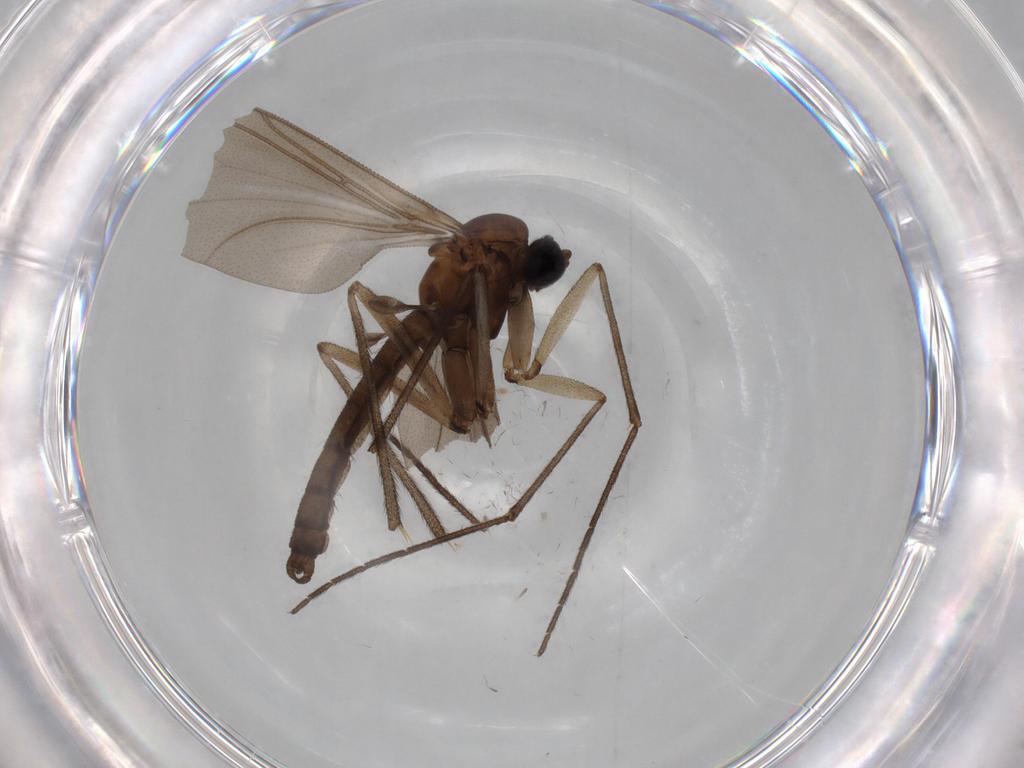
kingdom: Animalia
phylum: Arthropoda
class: Insecta
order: Diptera
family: Sciaridae
